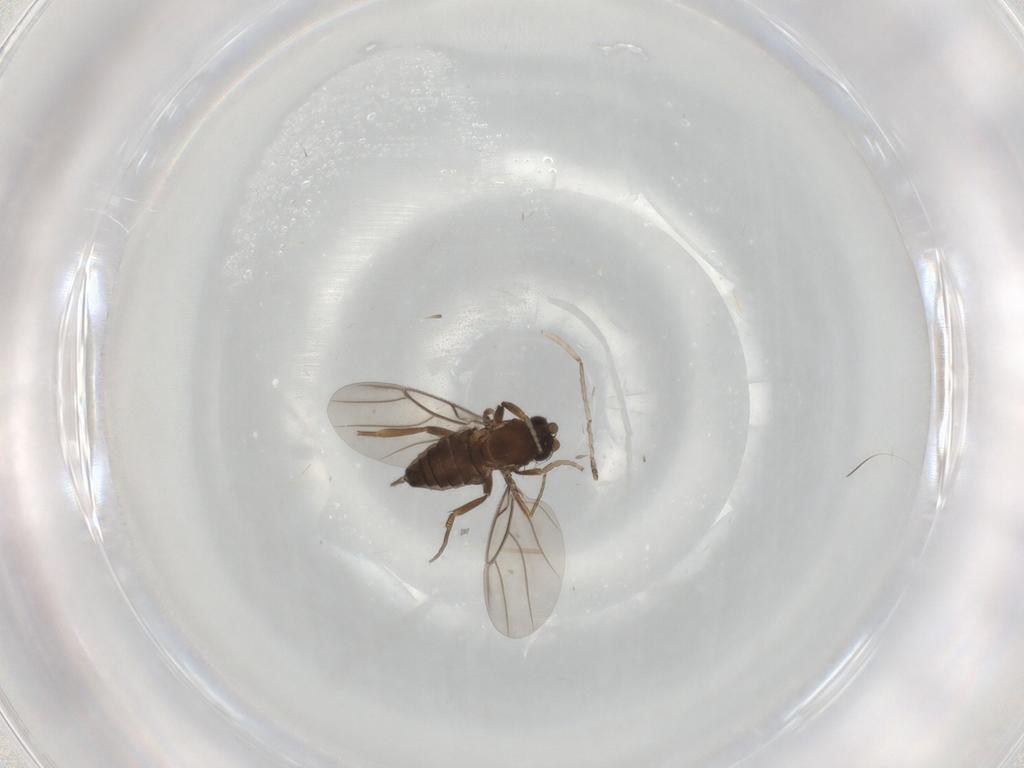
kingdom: Animalia
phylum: Arthropoda
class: Insecta
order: Diptera
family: Phoridae
